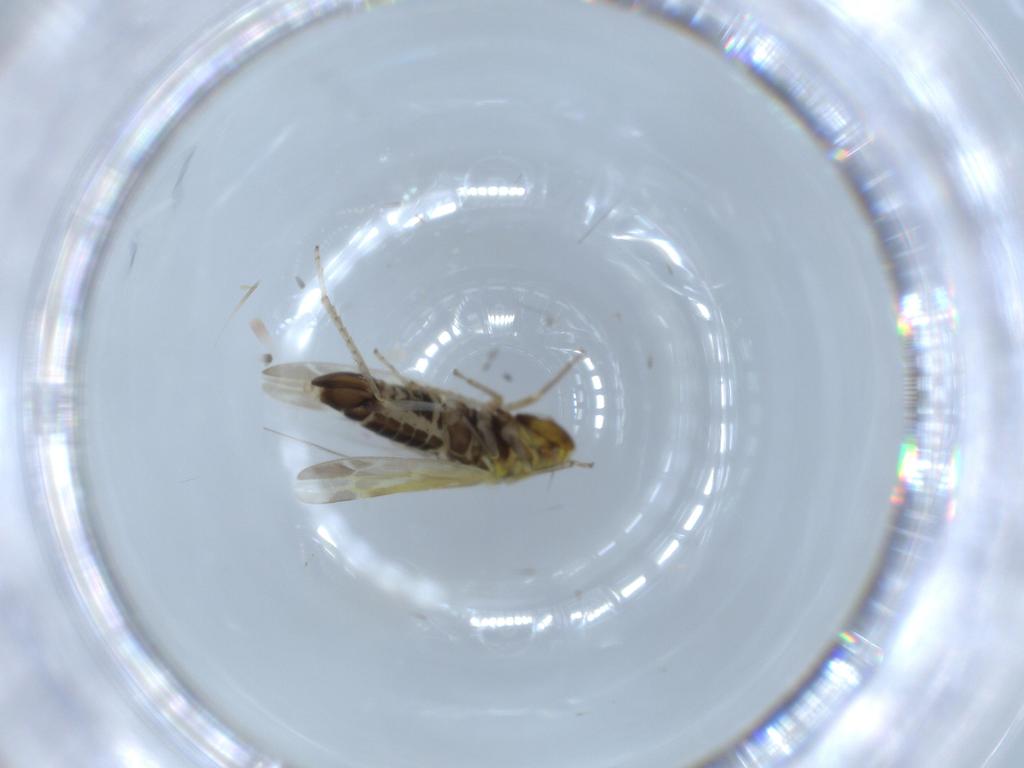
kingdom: Animalia
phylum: Arthropoda
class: Insecta
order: Hemiptera
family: Cicadellidae
